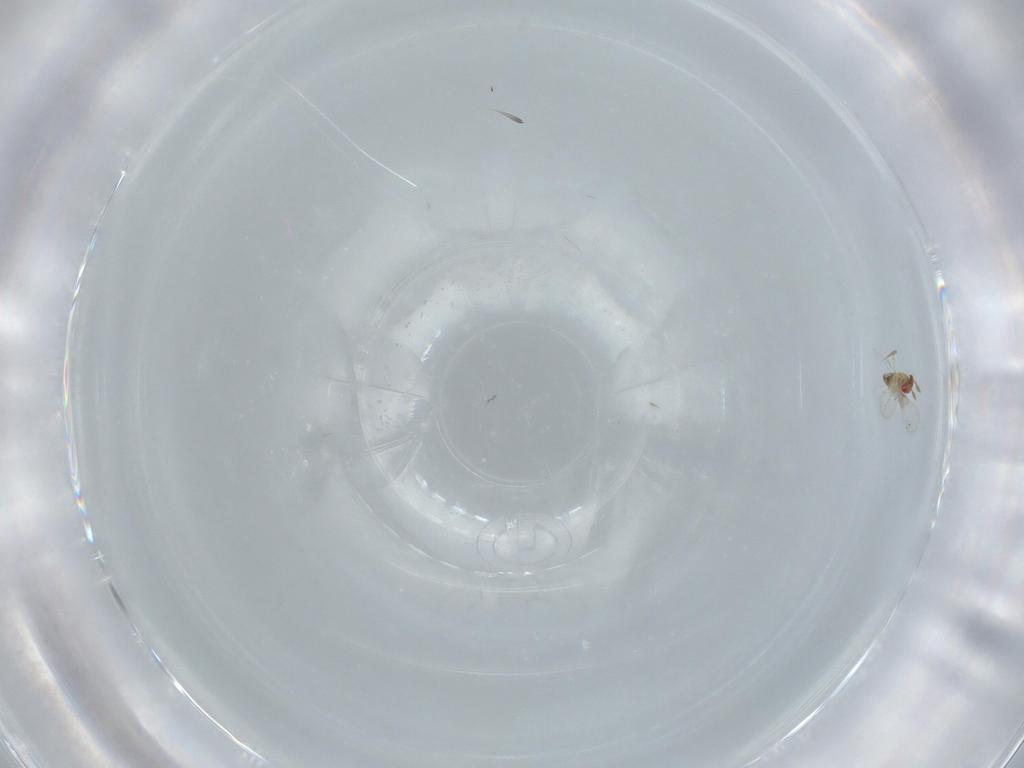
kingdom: Animalia
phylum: Arthropoda
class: Insecta
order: Hymenoptera
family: Trichogrammatidae
